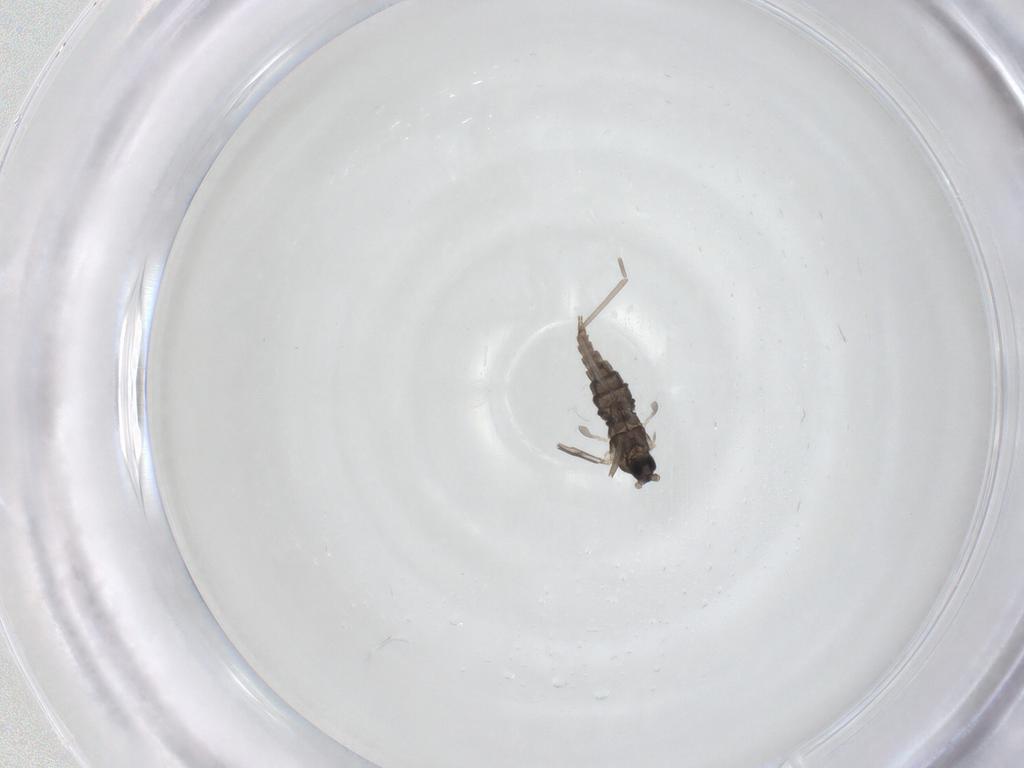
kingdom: Animalia
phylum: Arthropoda
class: Insecta
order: Diptera
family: Cecidomyiidae
